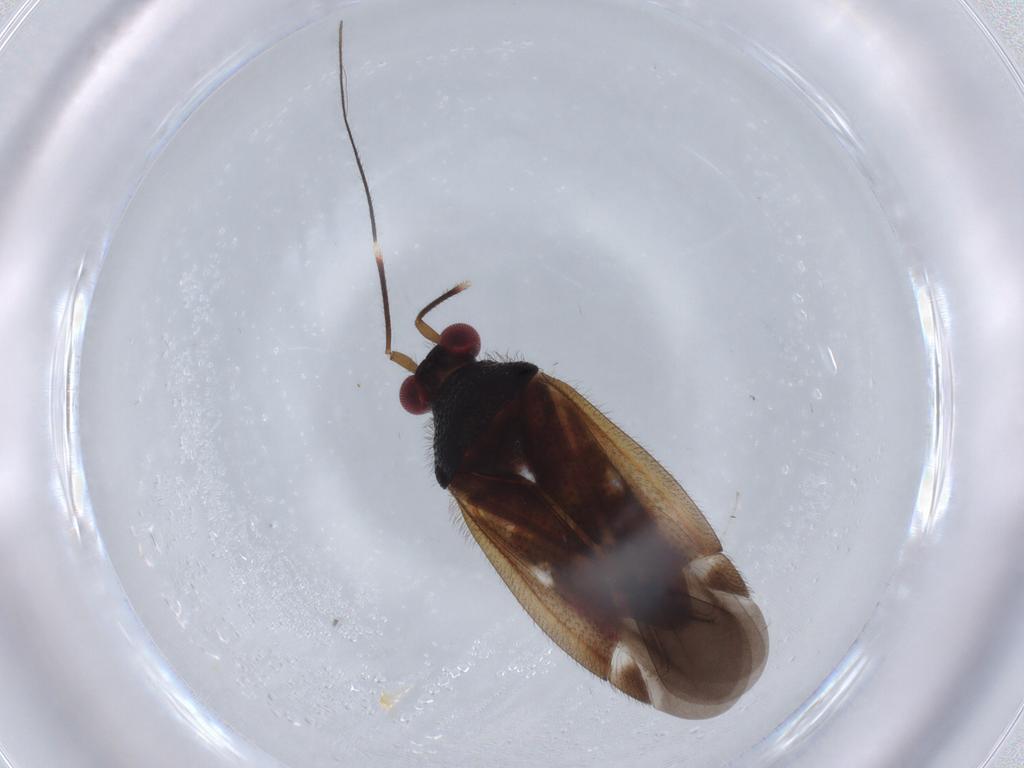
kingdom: Animalia
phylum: Arthropoda
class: Insecta
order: Hemiptera
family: Miridae
